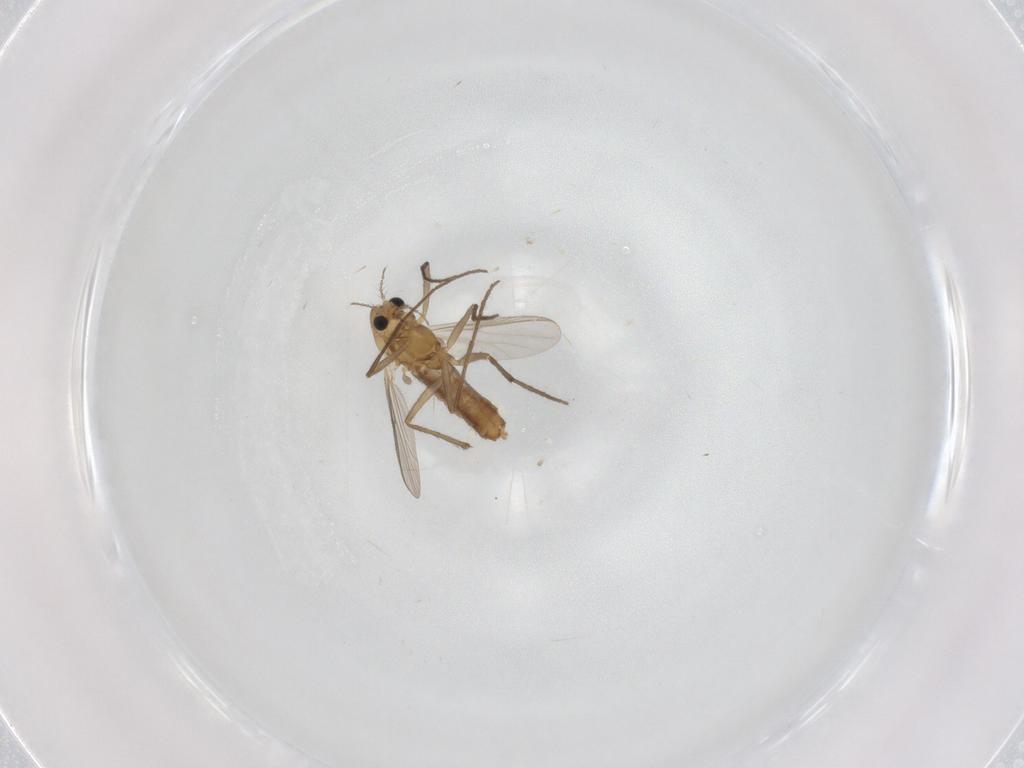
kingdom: Animalia
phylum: Arthropoda
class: Insecta
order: Diptera
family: Chironomidae
